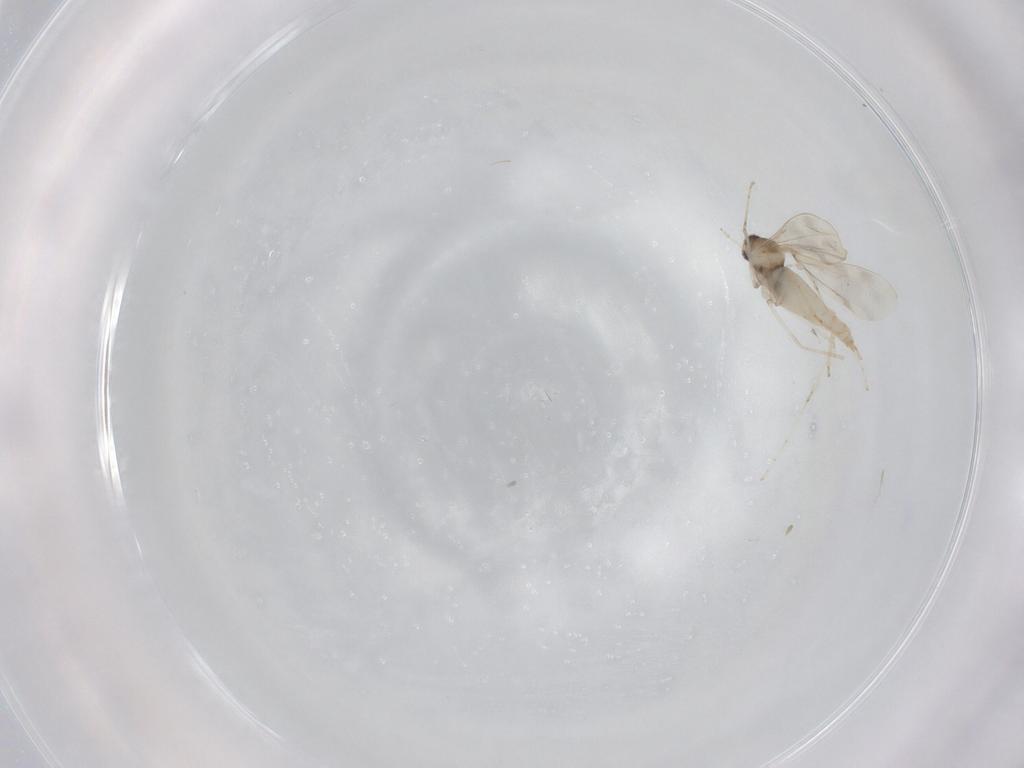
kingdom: Animalia
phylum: Arthropoda
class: Insecta
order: Diptera
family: Cecidomyiidae
